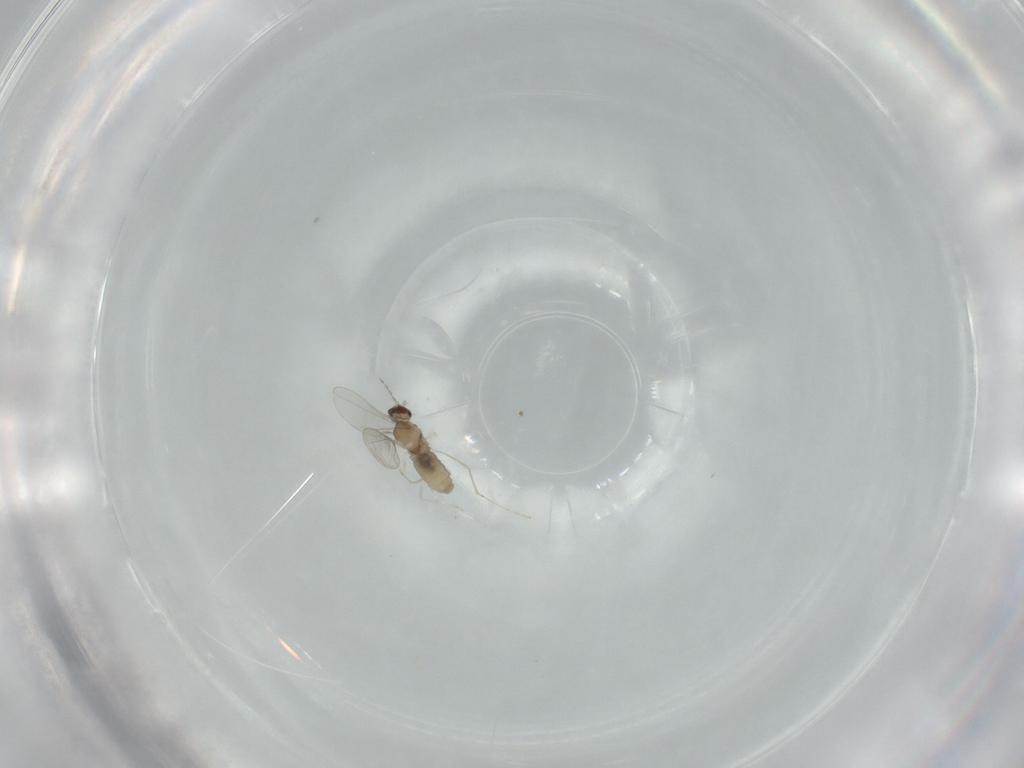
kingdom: Animalia
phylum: Arthropoda
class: Insecta
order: Diptera
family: Cecidomyiidae
